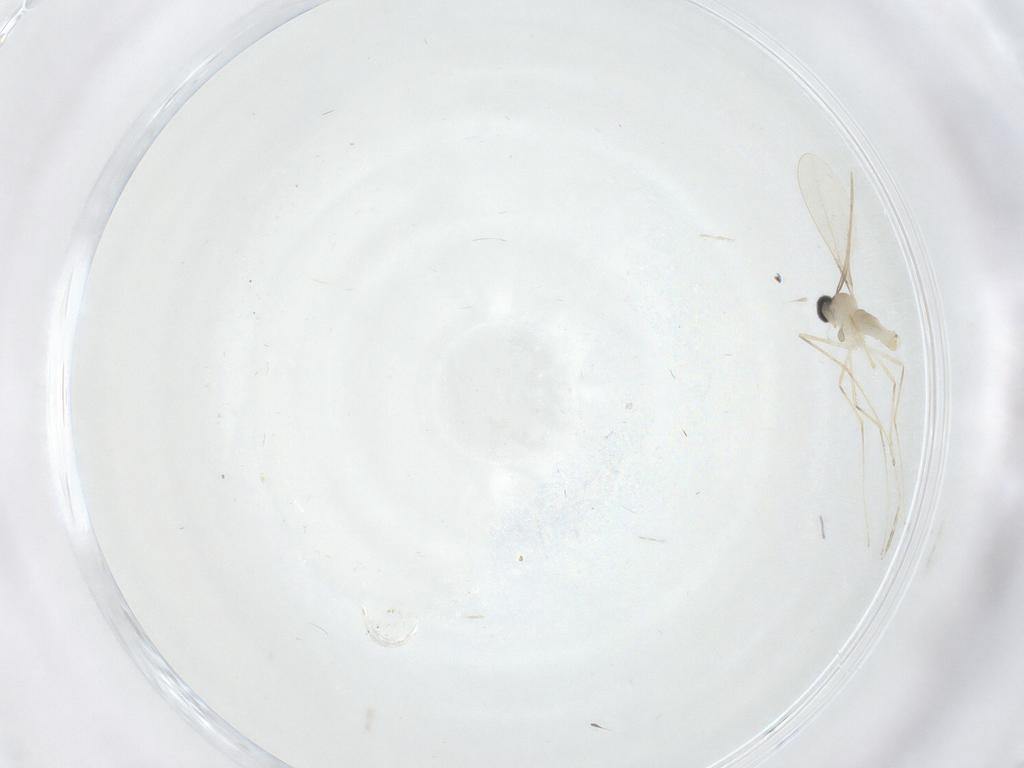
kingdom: Animalia
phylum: Arthropoda
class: Insecta
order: Diptera
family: Cecidomyiidae
